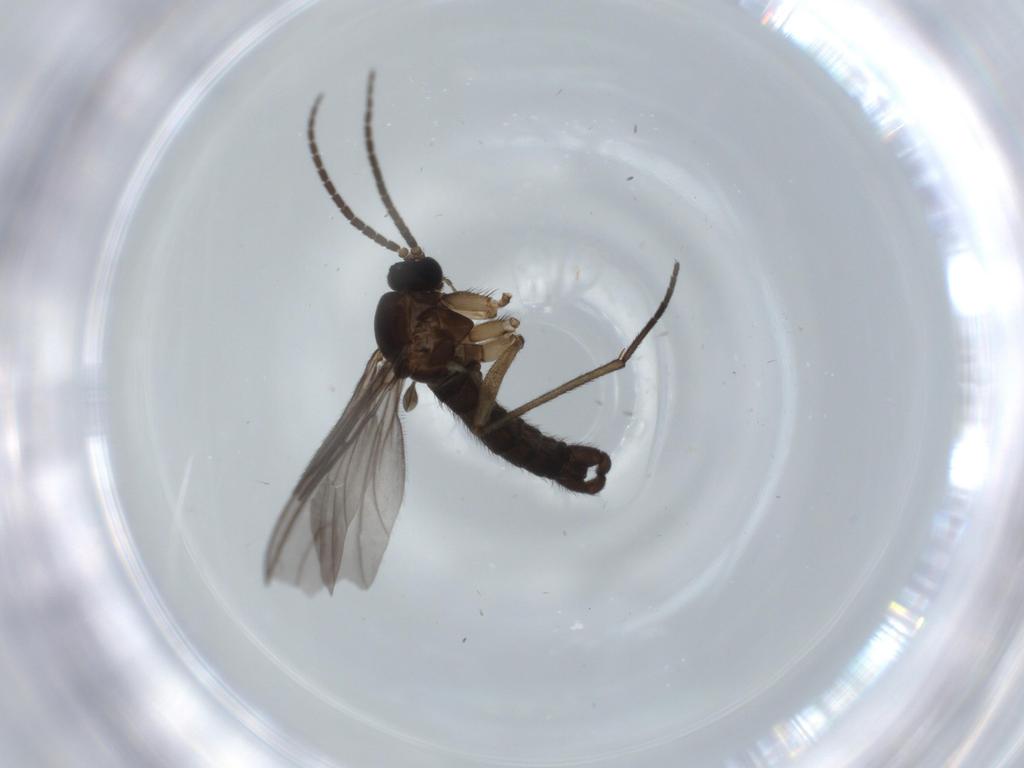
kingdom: Animalia
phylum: Arthropoda
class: Insecta
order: Diptera
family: Sciaridae
